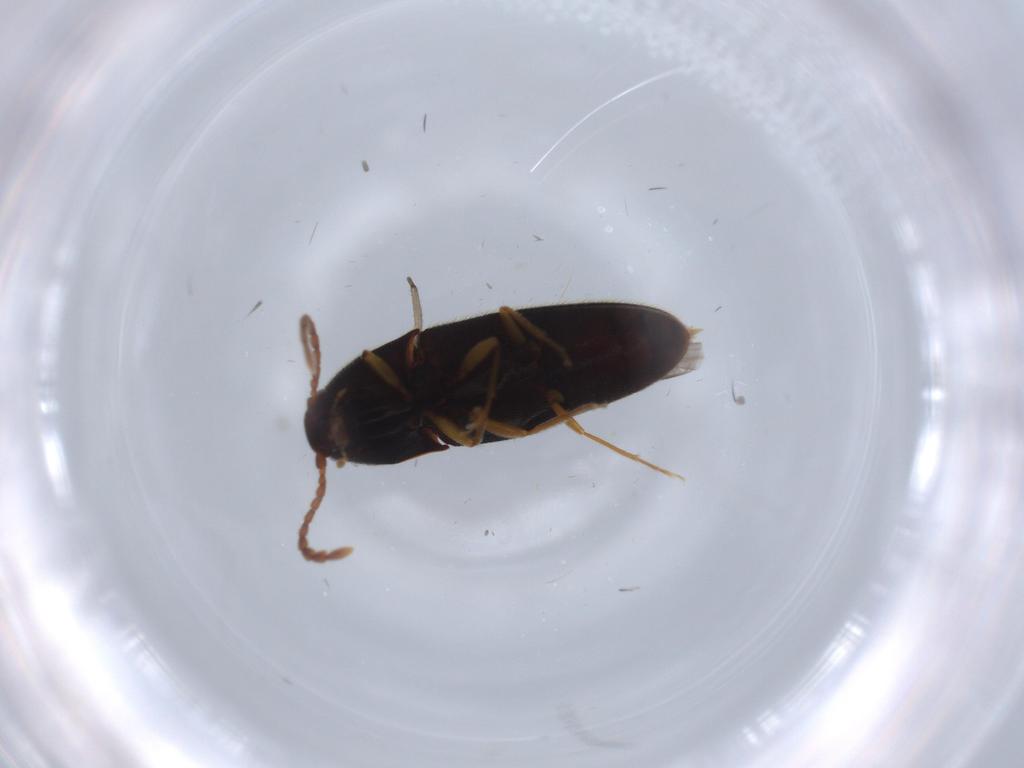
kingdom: Animalia
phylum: Arthropoda
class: Insecta
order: Coleoptera
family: Elateridae
